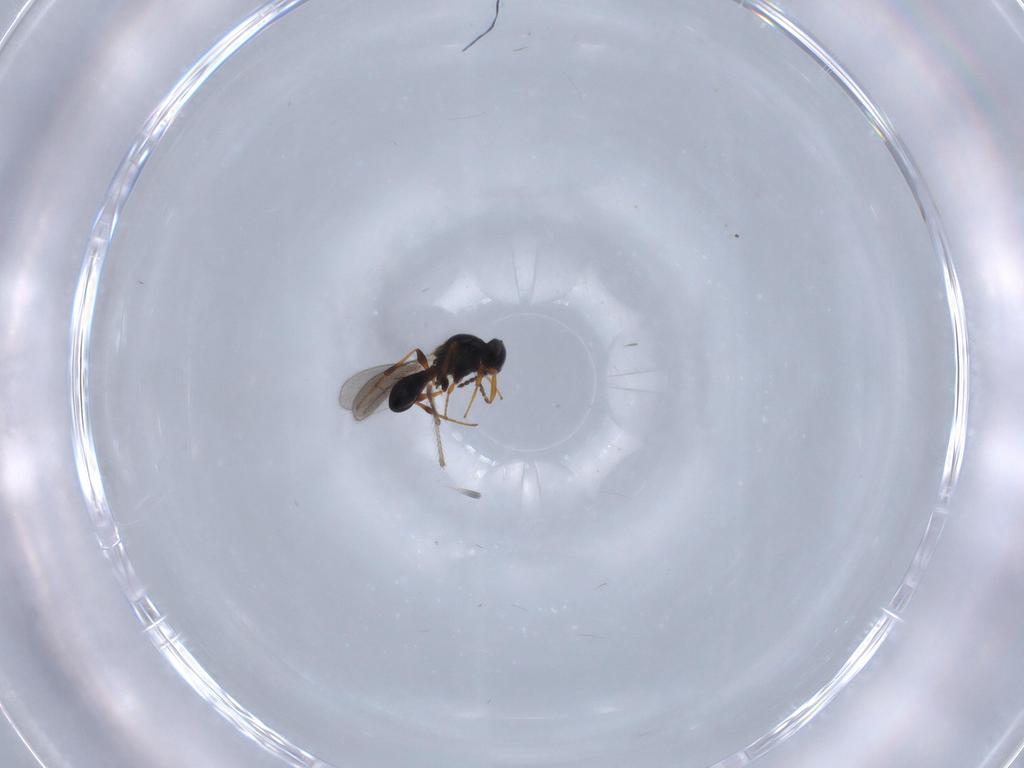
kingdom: Animalia
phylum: Arthropoda
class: Insecta
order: Hymenoptera
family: Platygastridae
